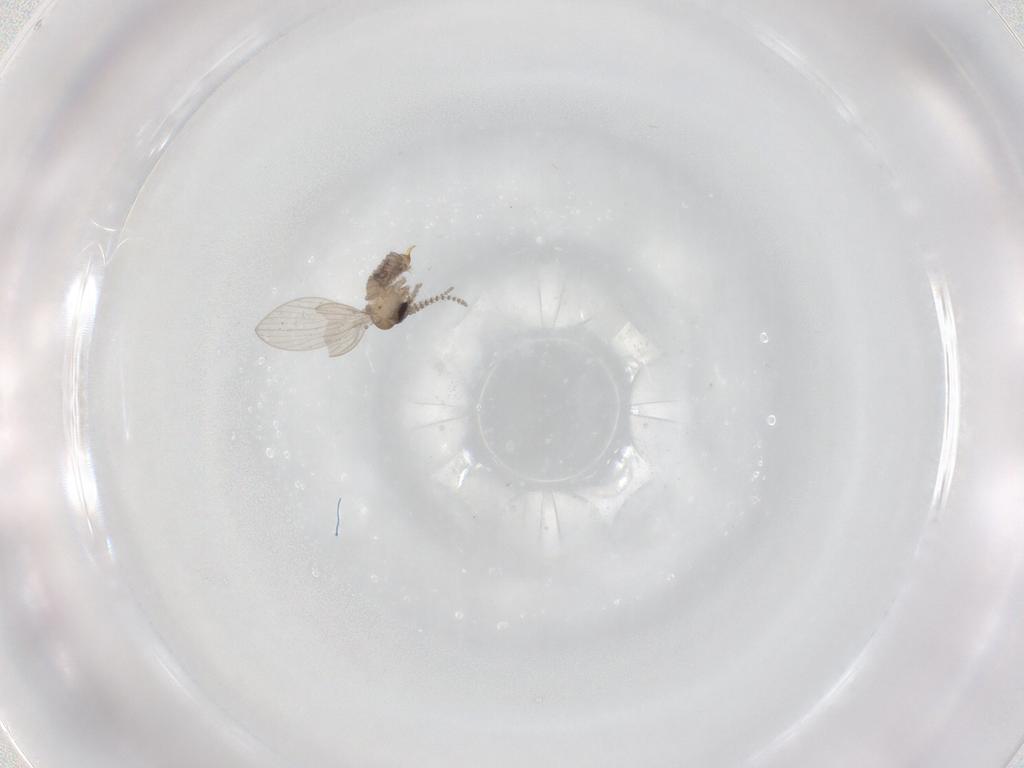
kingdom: Animalia
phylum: Arthropoda
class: Insecta
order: Diptera
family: Psychodidae
